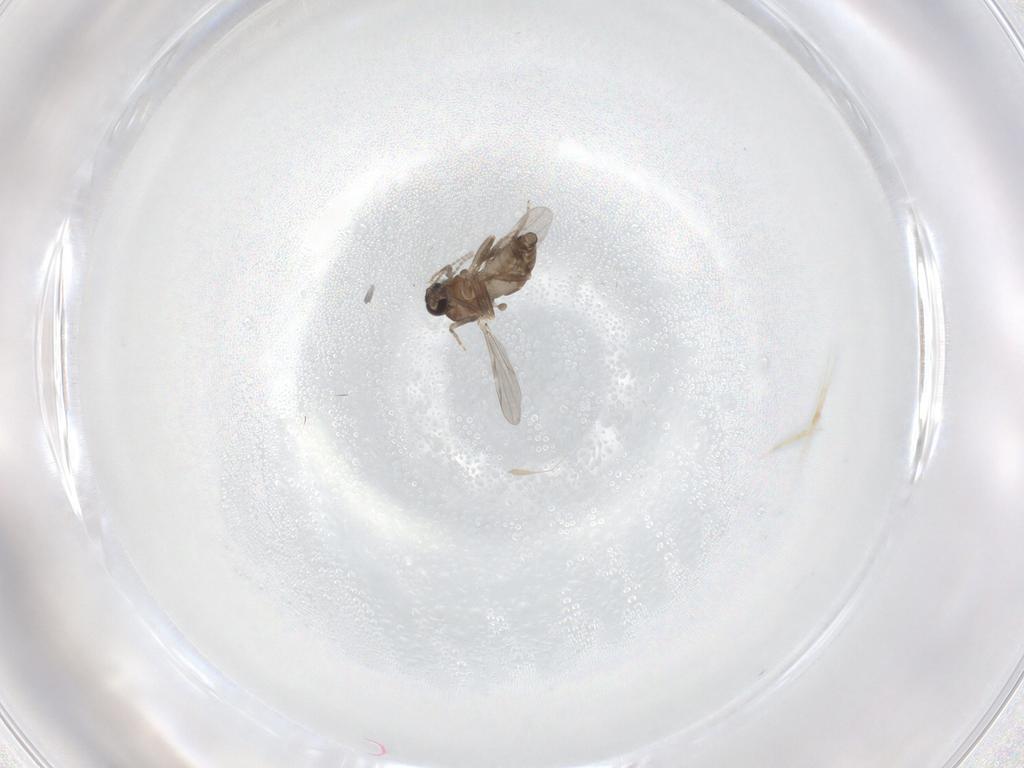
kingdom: Animalia
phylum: Arthropoda
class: Insecta
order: Diptera
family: Ceratopogonidae
